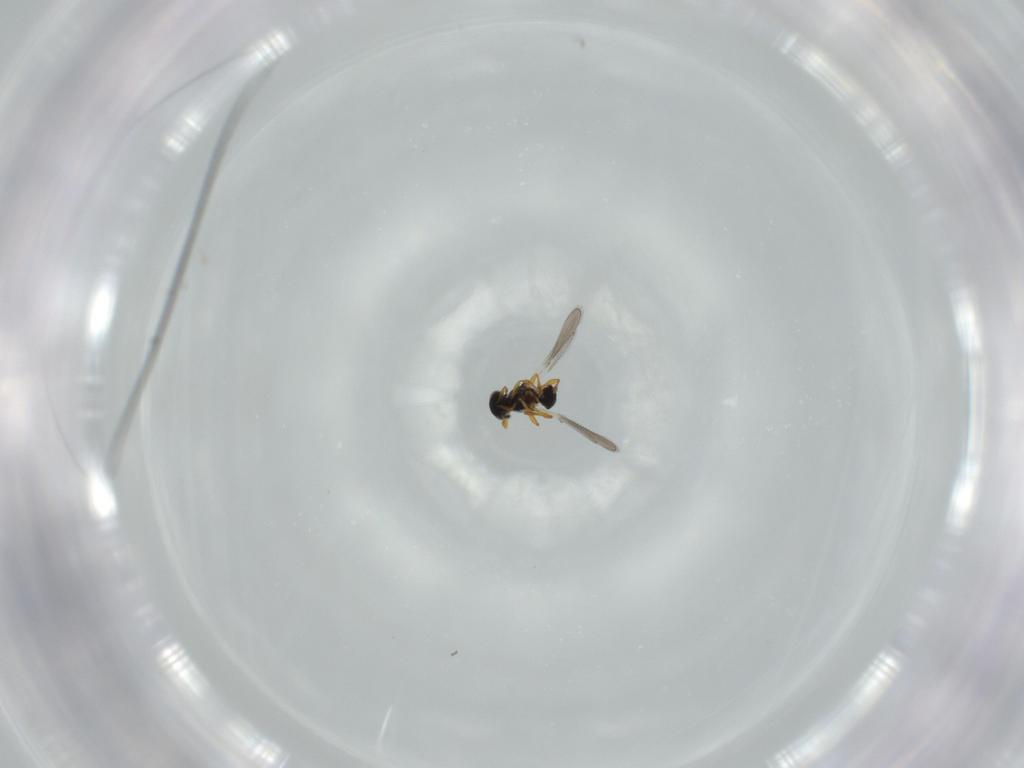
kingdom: Animalia
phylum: Arthropoda
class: Insecta
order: Hymenoptera
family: Platygastridae
